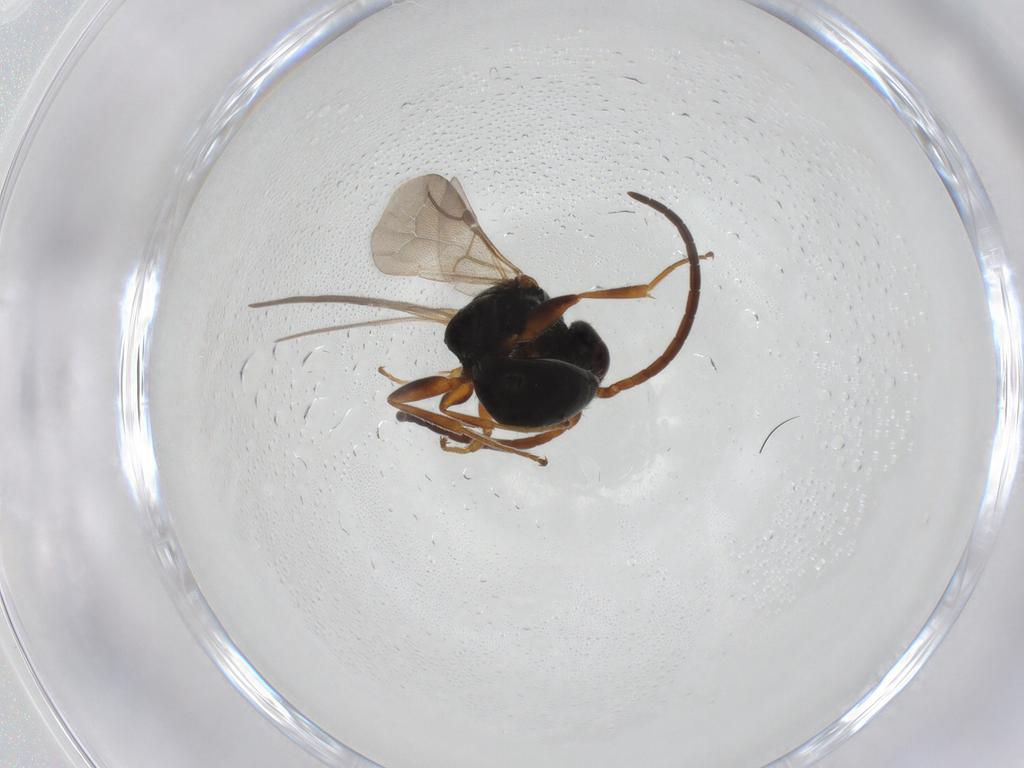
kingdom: Animalia
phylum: Arthropoda
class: Insecta
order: Hymenoptera
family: Bethylidae
